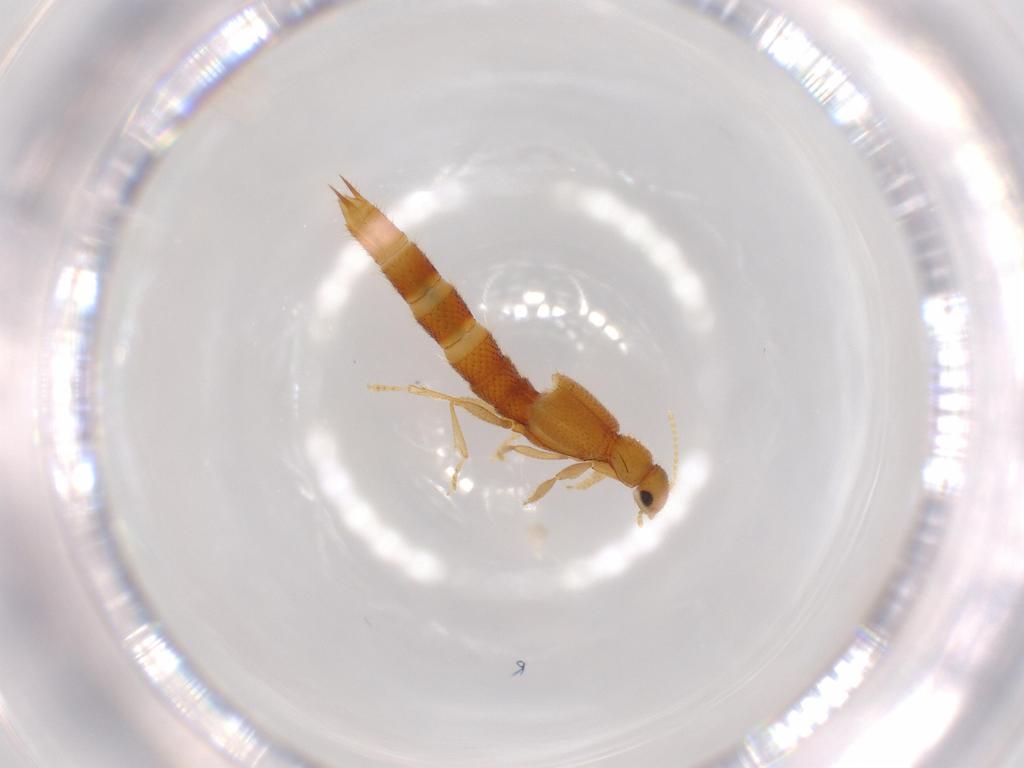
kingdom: Animalia
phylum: Arthropoda
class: Insecta
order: Coleoptera
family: Staphylinidae
